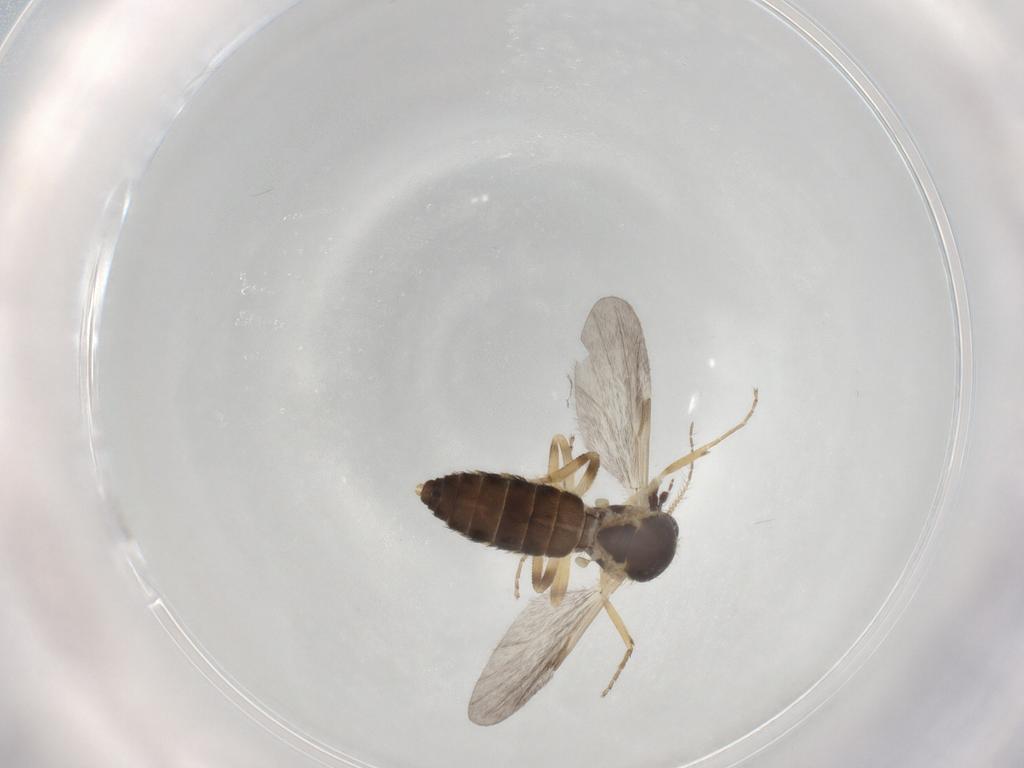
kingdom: Animalia
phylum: Arthropoda
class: Insecta
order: Diptera
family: Ceratopogonidae
